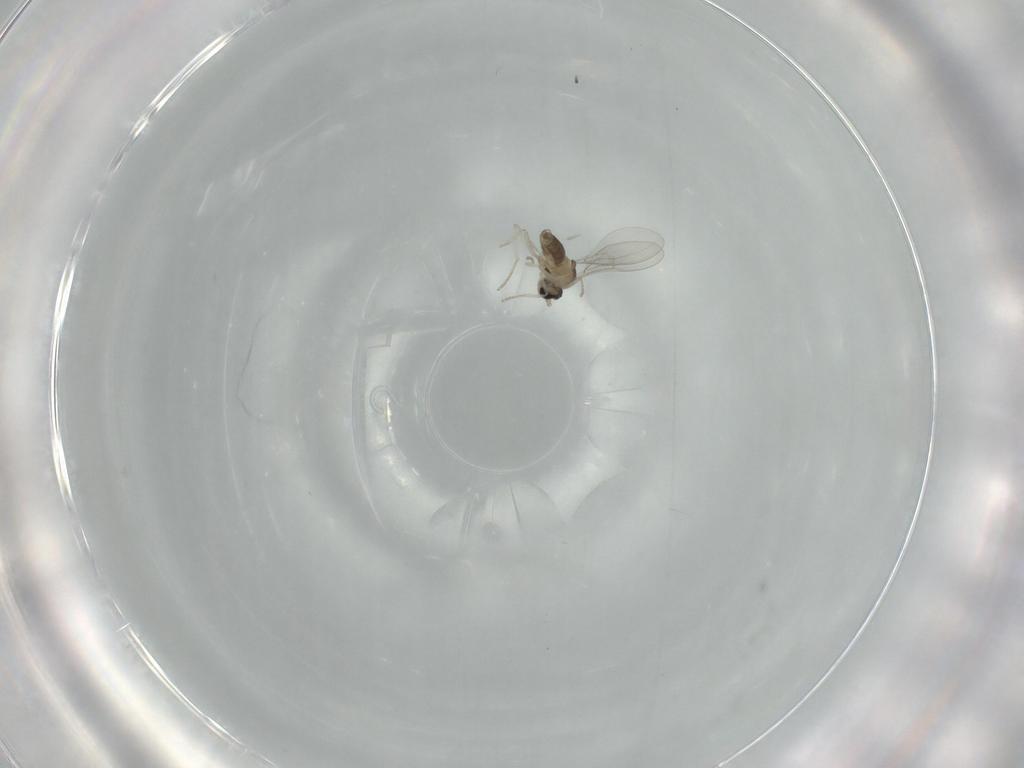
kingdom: Animalia
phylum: Arthropoda
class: Insecta
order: Diptera
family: Cecidomyiidae
